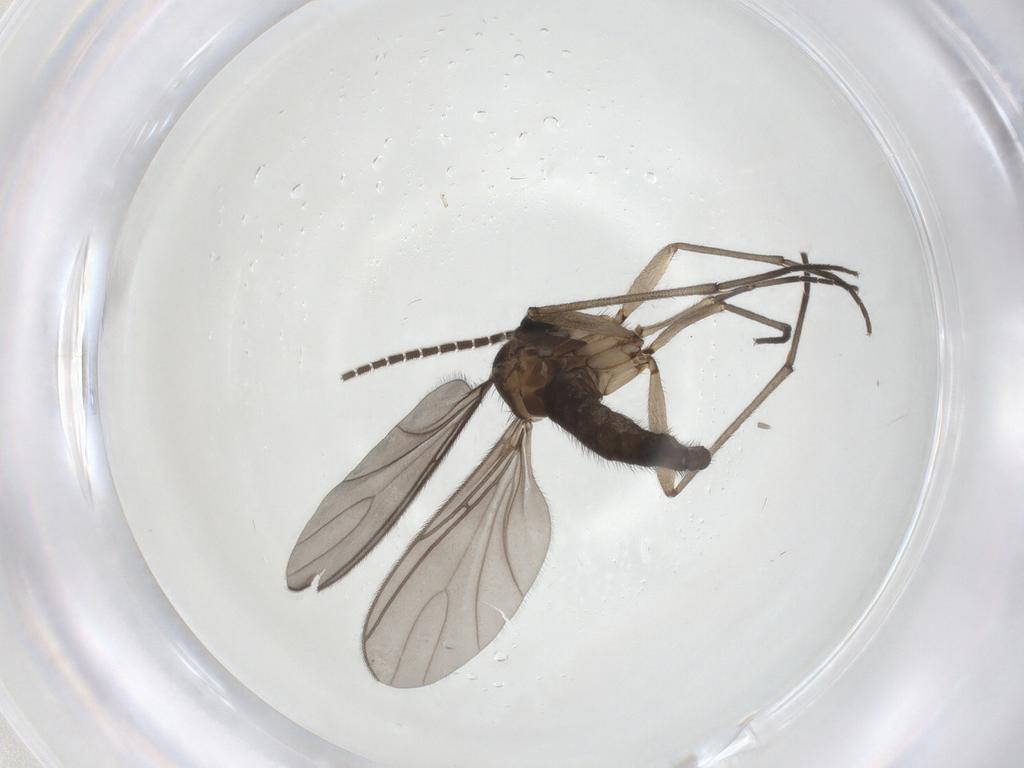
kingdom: Animalia
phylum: Arthropoda
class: Insecta
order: Diptera
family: Sciaridae
